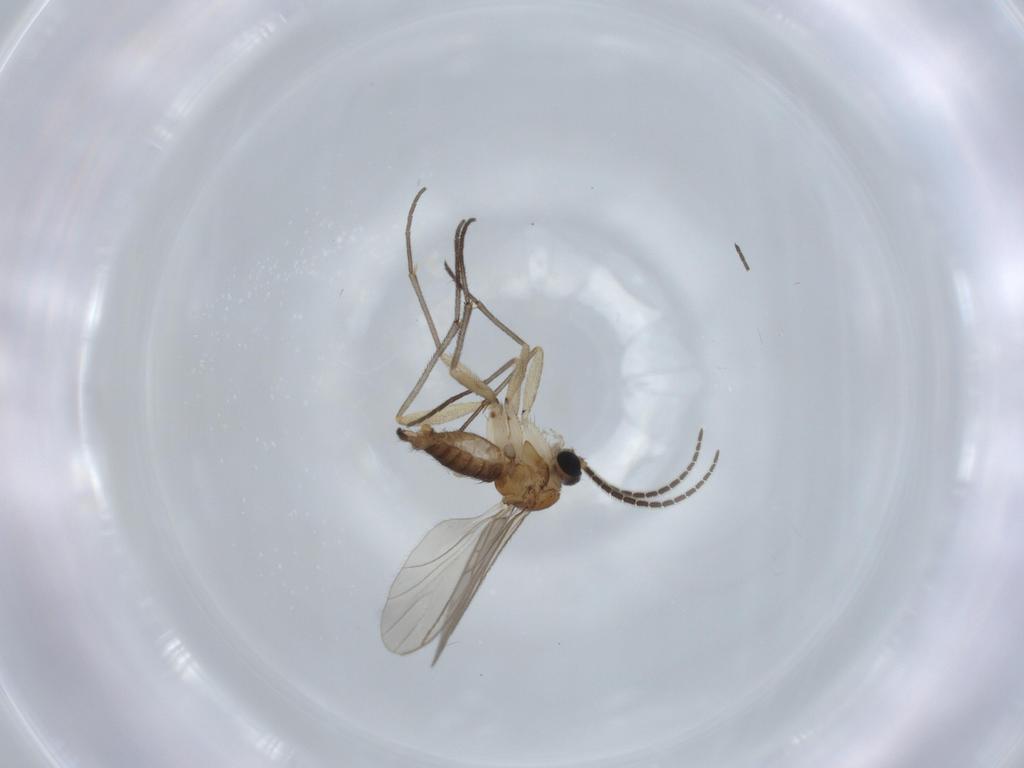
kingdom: Animalia
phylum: Arthropoda
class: Insecta
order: Diptera
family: Sciaridae
